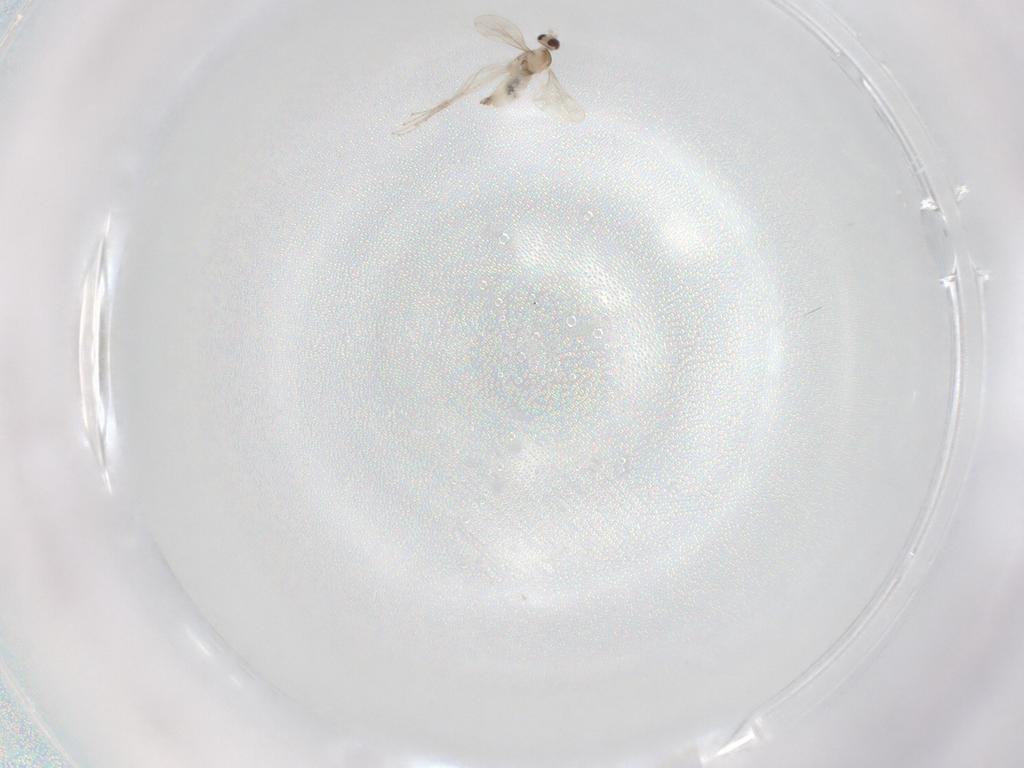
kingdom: Animalia
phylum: Arthropoda
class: Insecta
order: Diptera
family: Cecidomyiidae
